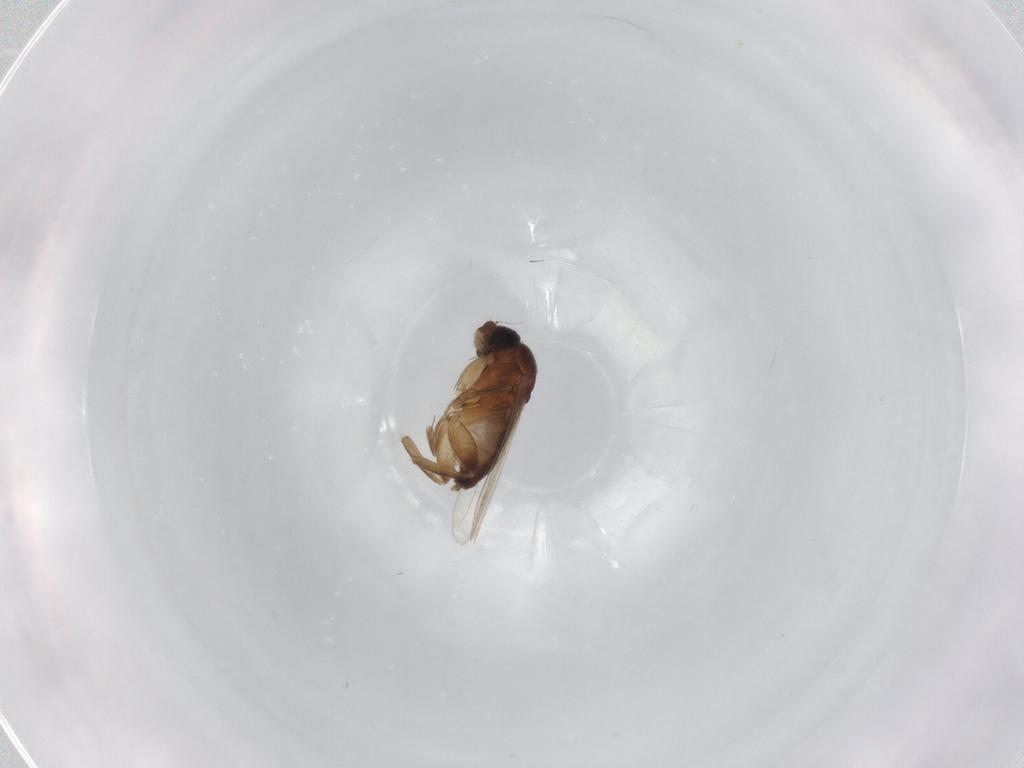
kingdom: Animalia
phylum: Arthropoda
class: Insecta
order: Diptera
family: Phoridae
